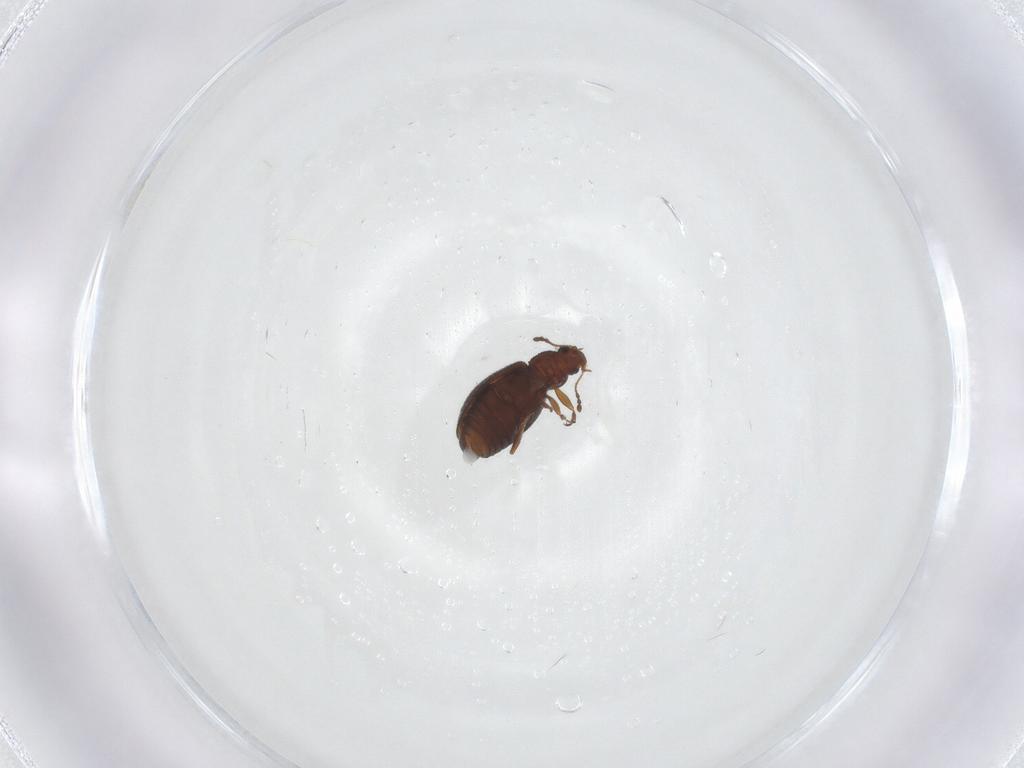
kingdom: Animalia
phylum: Arthropoda
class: Insecta
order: Coleoptera
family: Latridiidae
